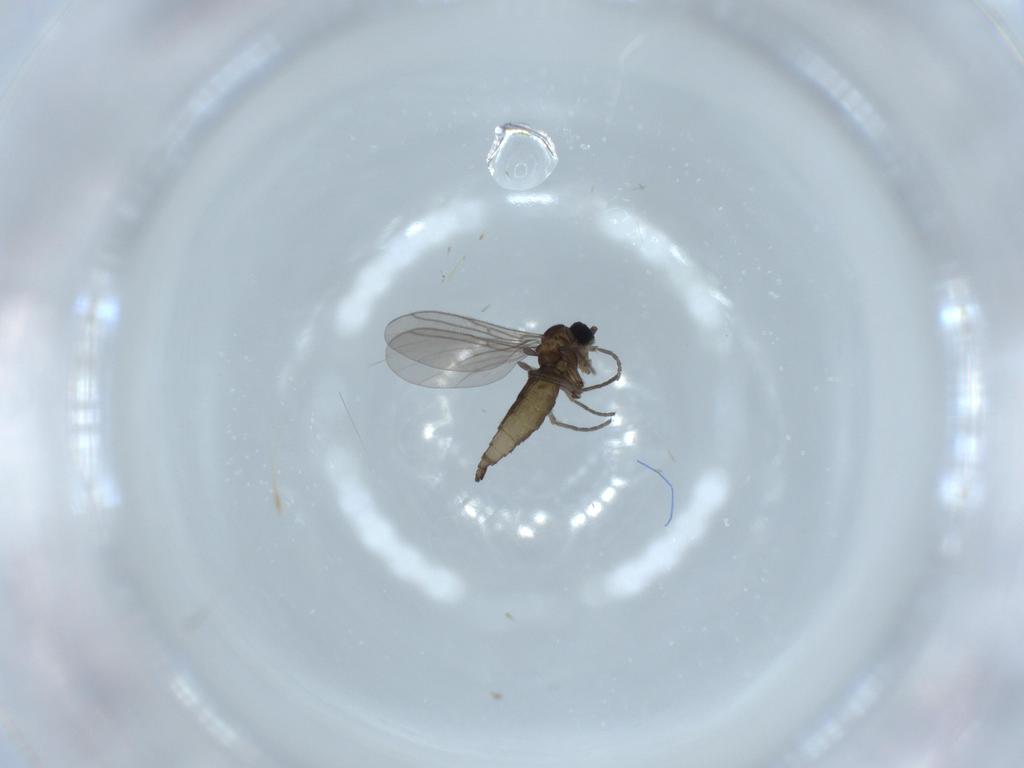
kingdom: Animalia
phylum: Arthropoda
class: Insecta
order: Diptera
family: Sciaridae
